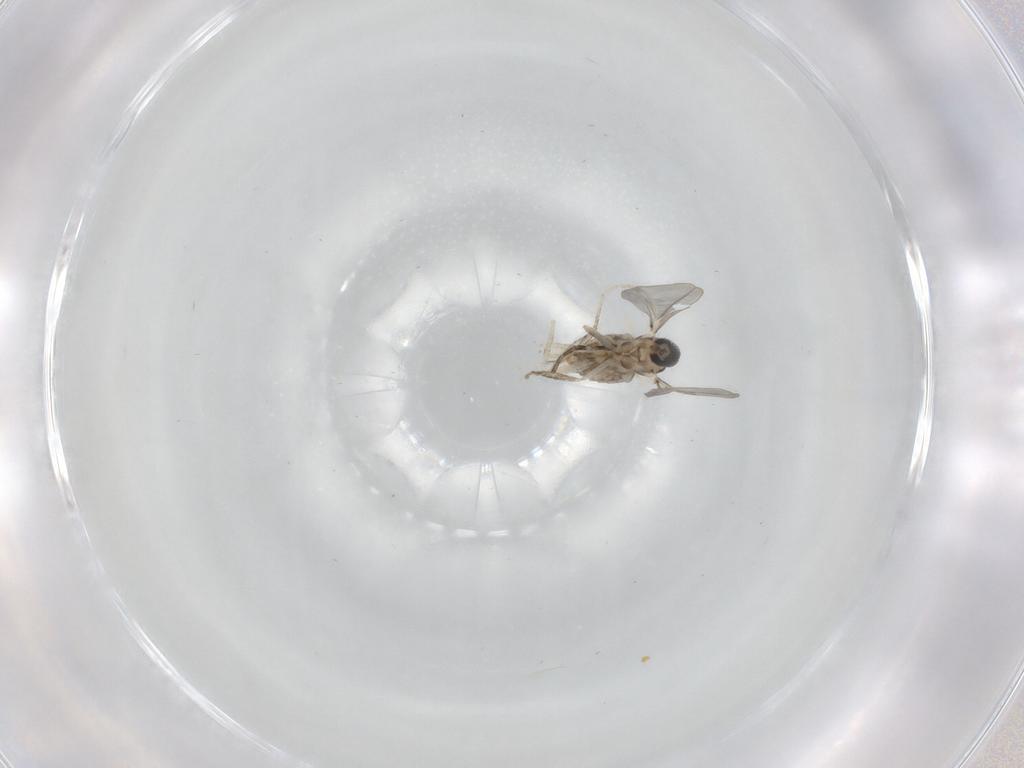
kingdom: Animalia
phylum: Arthropoda
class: Insecta
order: Diptera
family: Cecidomyiidae
